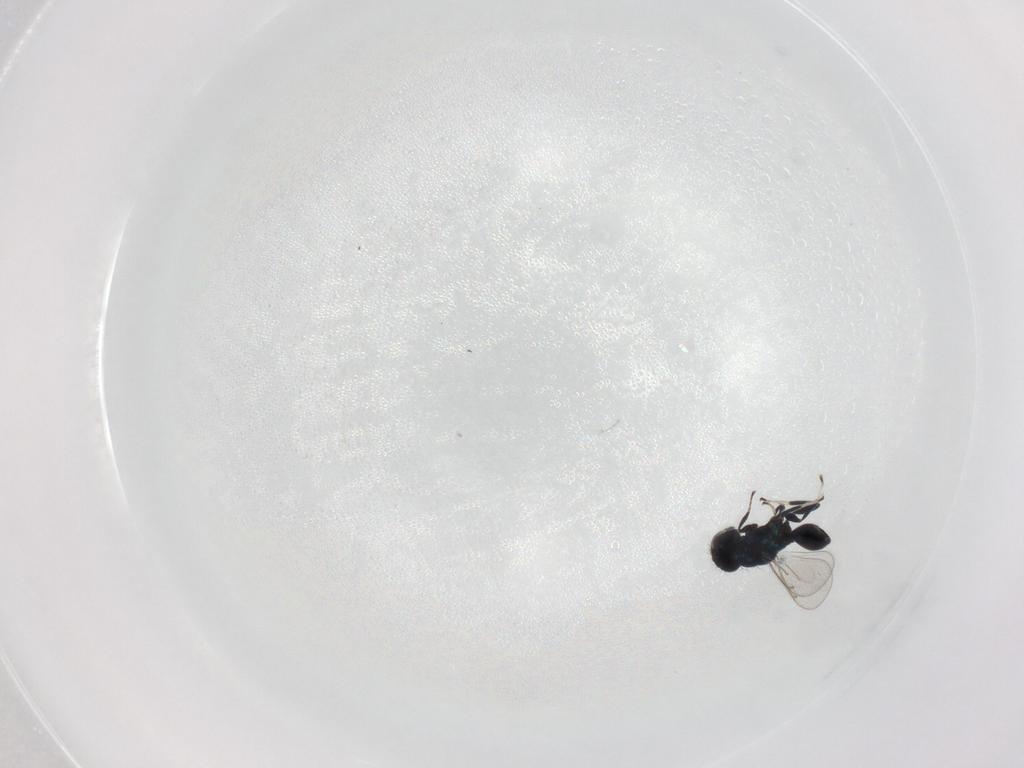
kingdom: Animalia
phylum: Arthropoda
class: Insecta
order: Hymenoptera
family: Eulophidae
